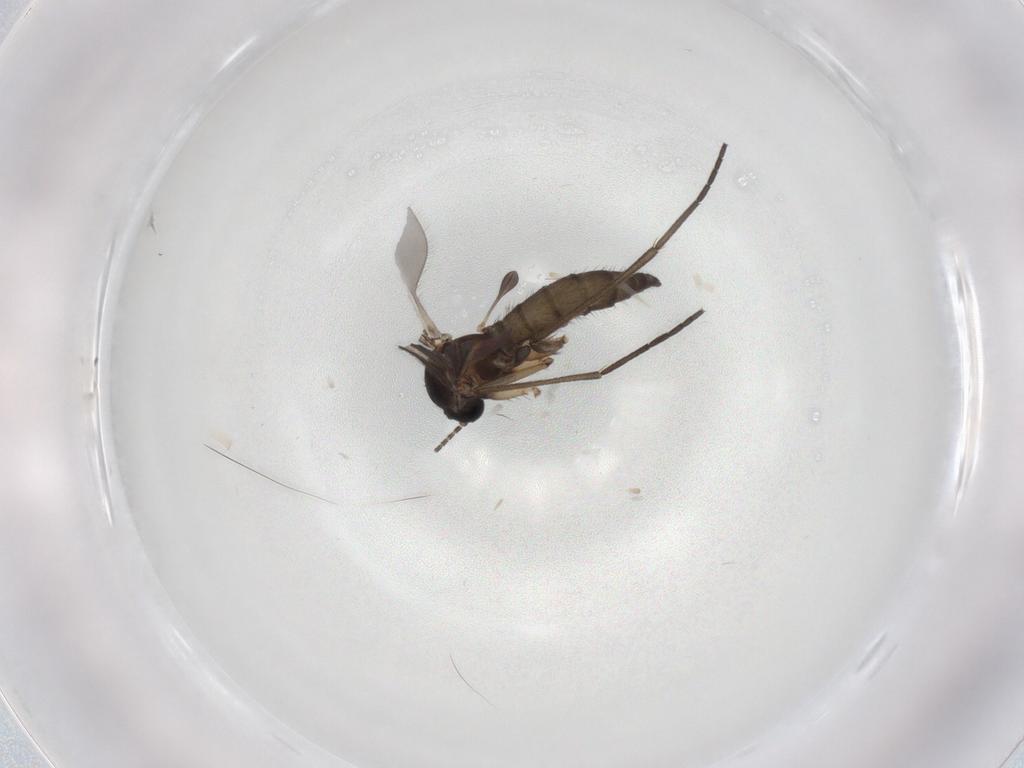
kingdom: Animalia
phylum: Arthropoda
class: Insecta
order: Diptera
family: Sciaridae
